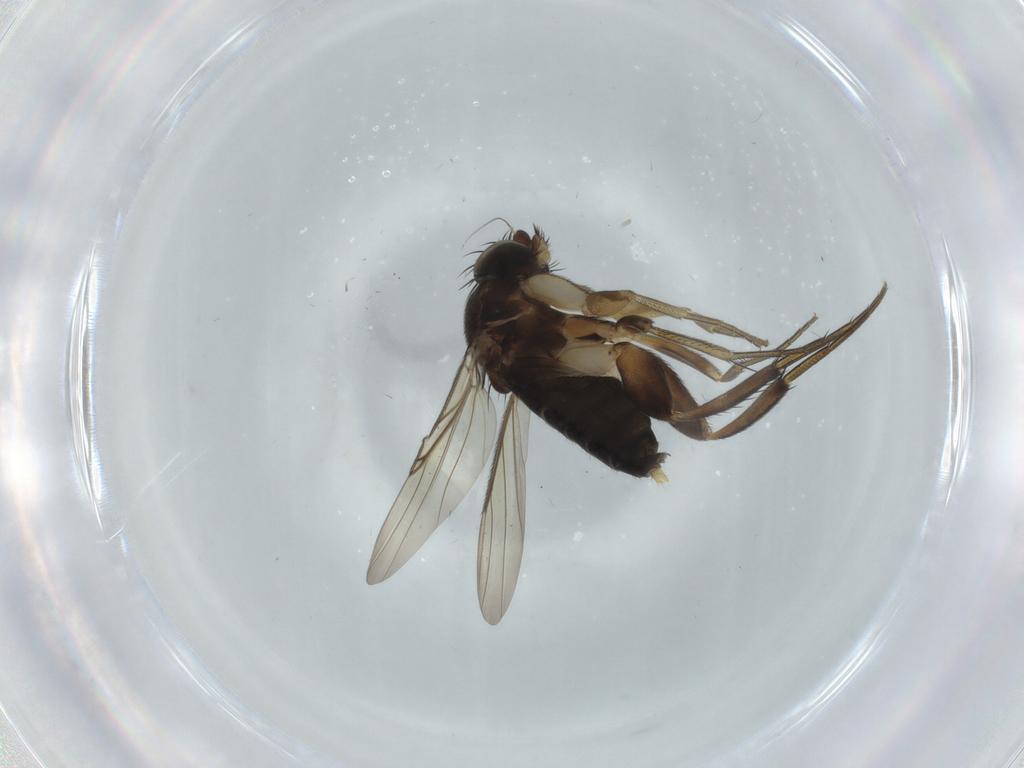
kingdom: Animalia
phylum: Arthropoda
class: Insecta
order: Diptera
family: Phoridae
